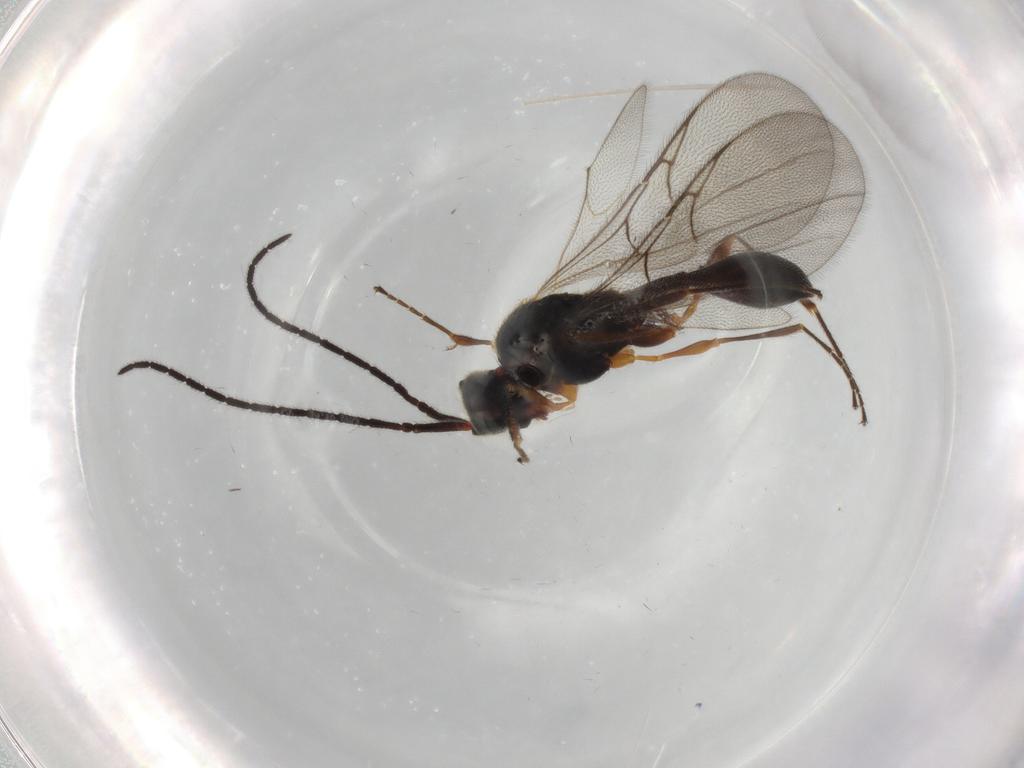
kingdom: Animalia
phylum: Arthropoda
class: Insecta
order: Hymenoptera
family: Diapriidae
